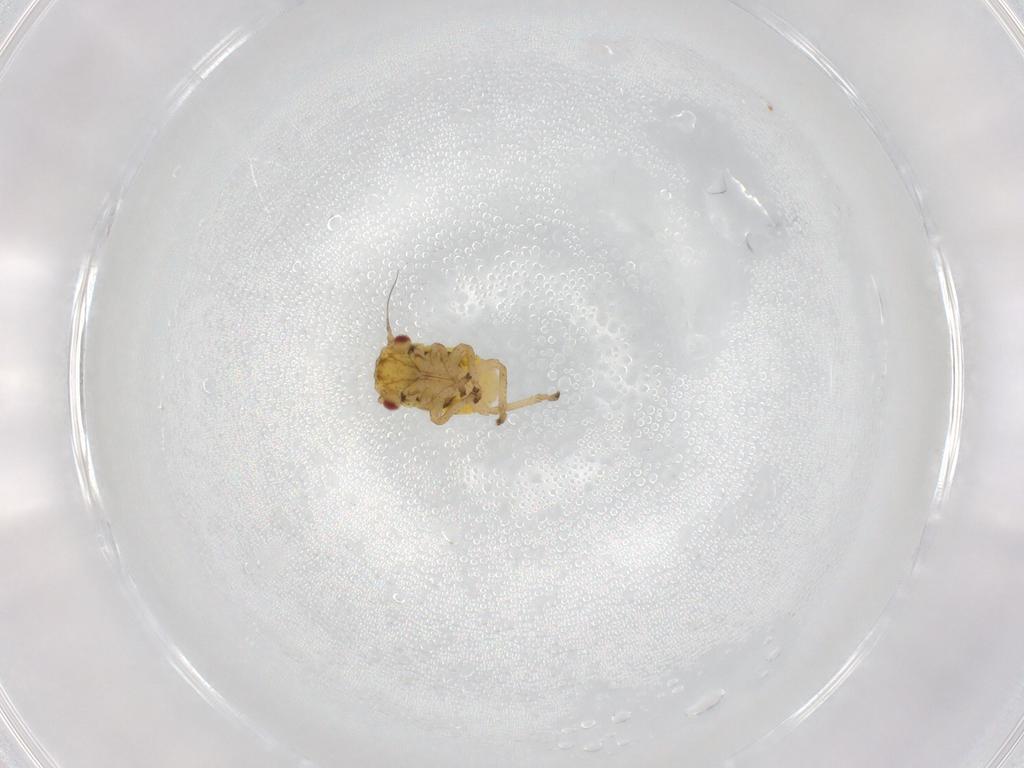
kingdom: Animalia
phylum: Arthropoda
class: Insecta
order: Hemiptera
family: Cicadellidae
